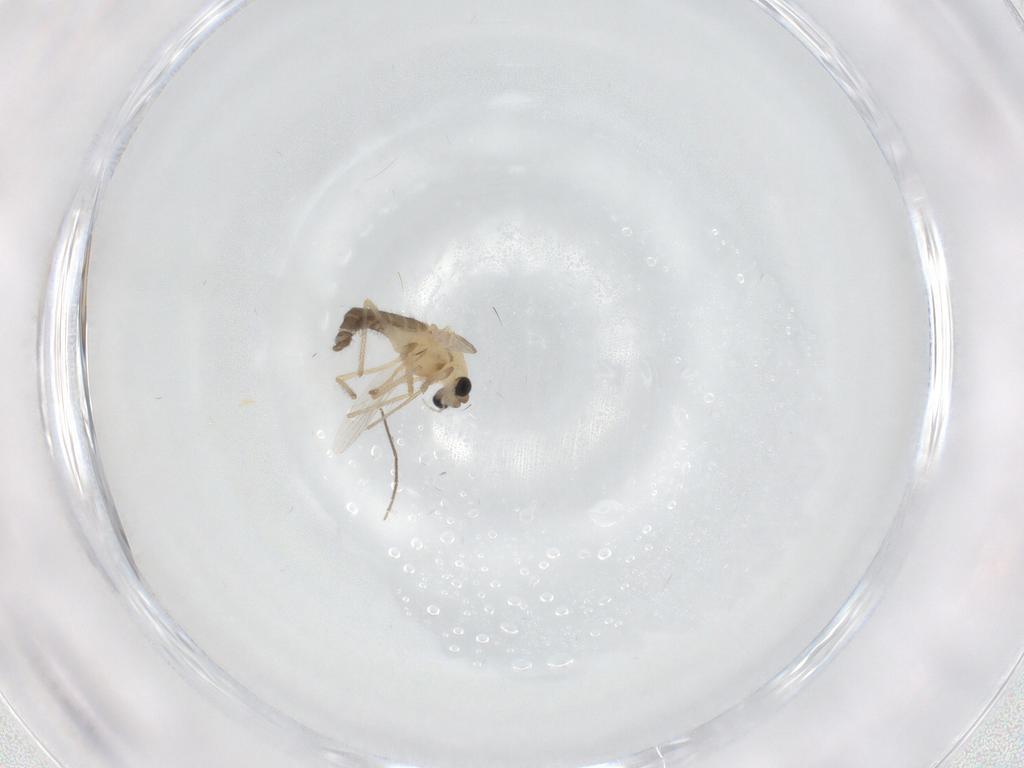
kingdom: Animalia
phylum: Arthropoda
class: Insecta
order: Diptera
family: Chironomidae
